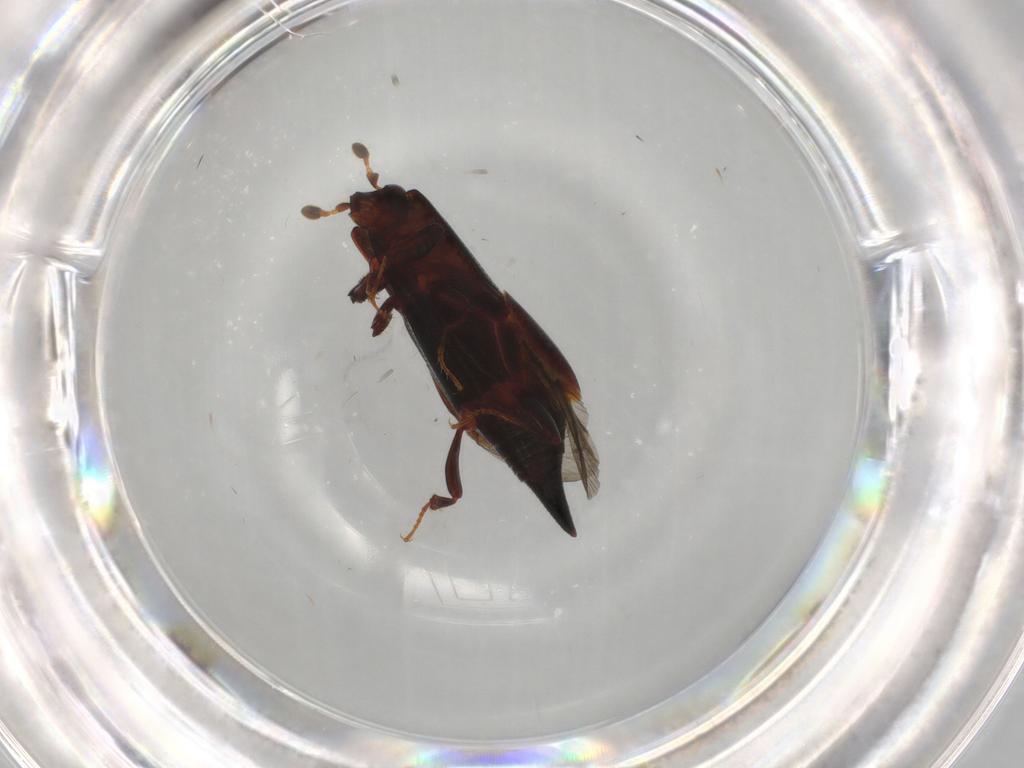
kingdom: Animalia
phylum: Arthropoda
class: Insecta
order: Coleoptera
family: Histeridae
